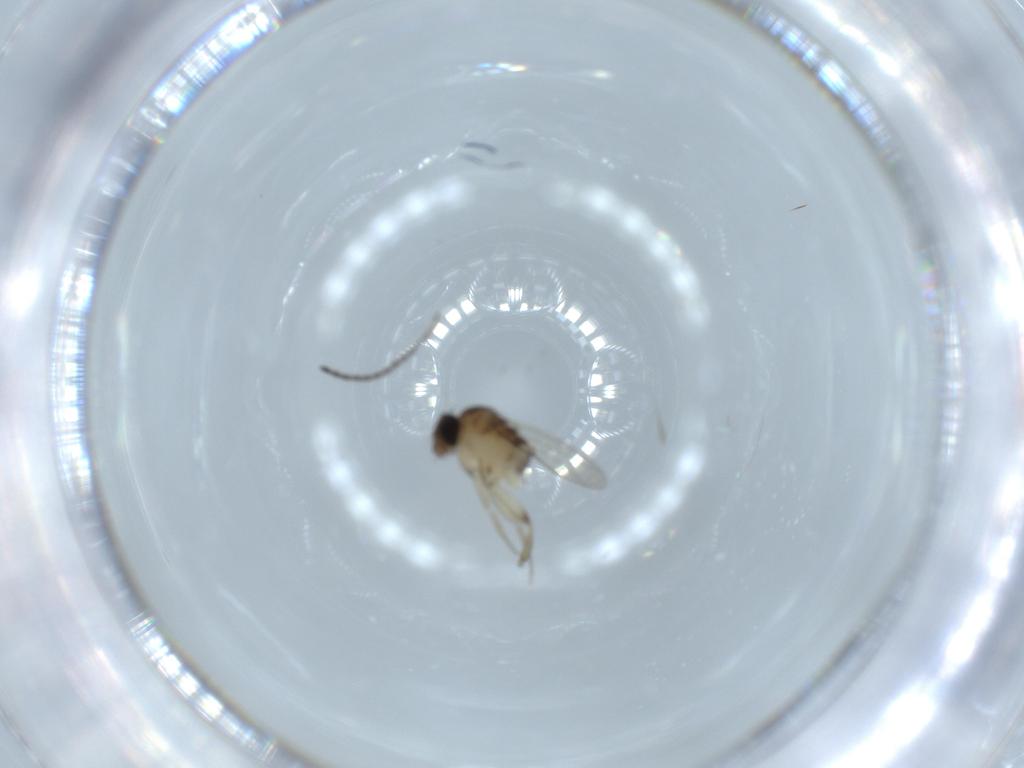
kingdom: Animalia
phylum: Arthropoda
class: Insecta
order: Diptera
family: Phoridae
